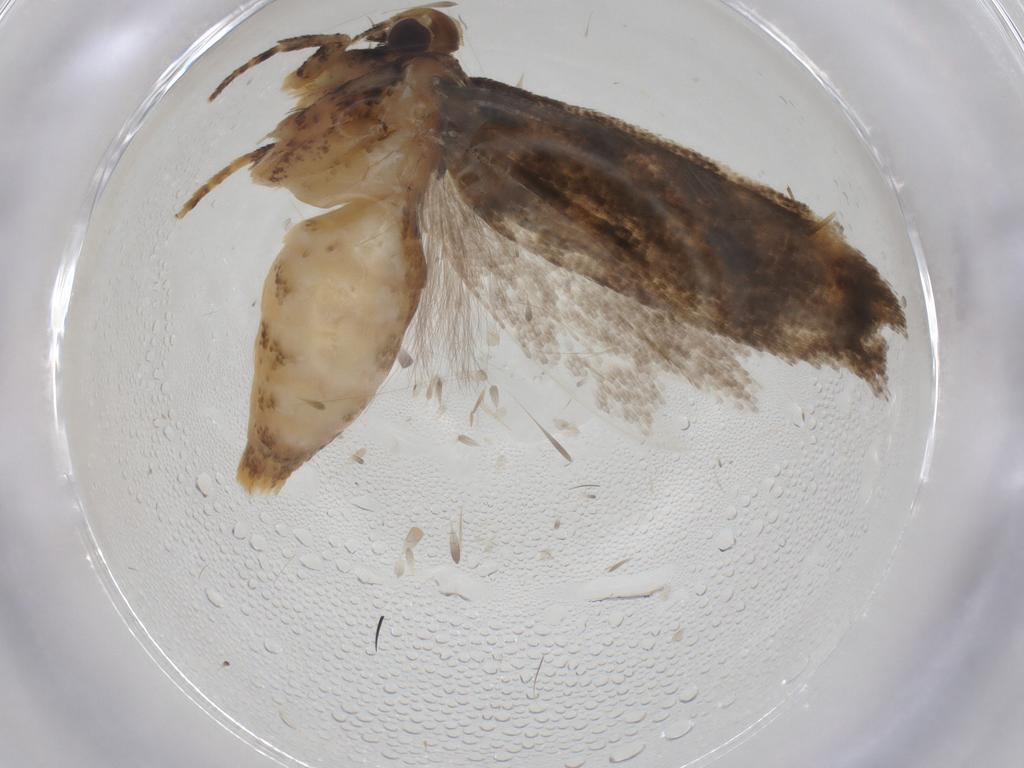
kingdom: Animalia
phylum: Arthropoda
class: Insecta
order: Lepidoptera
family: Gelechiidae
